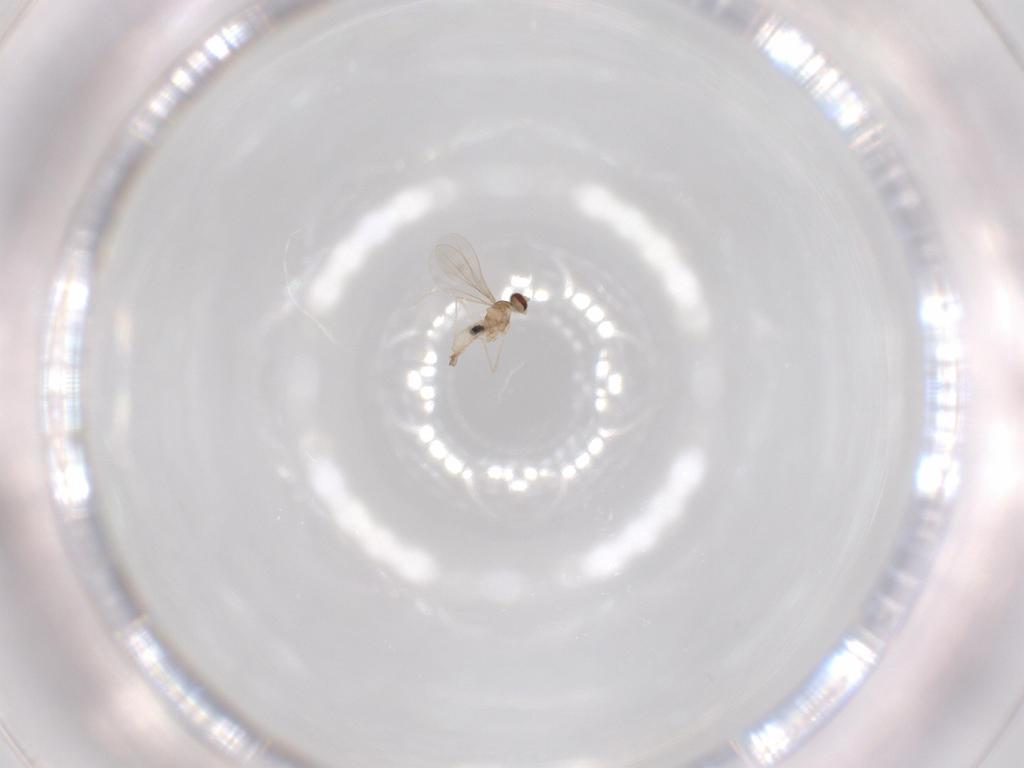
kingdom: Animalia
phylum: Arthropoda
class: Insecta
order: Diptera
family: Cecidomyiidae
